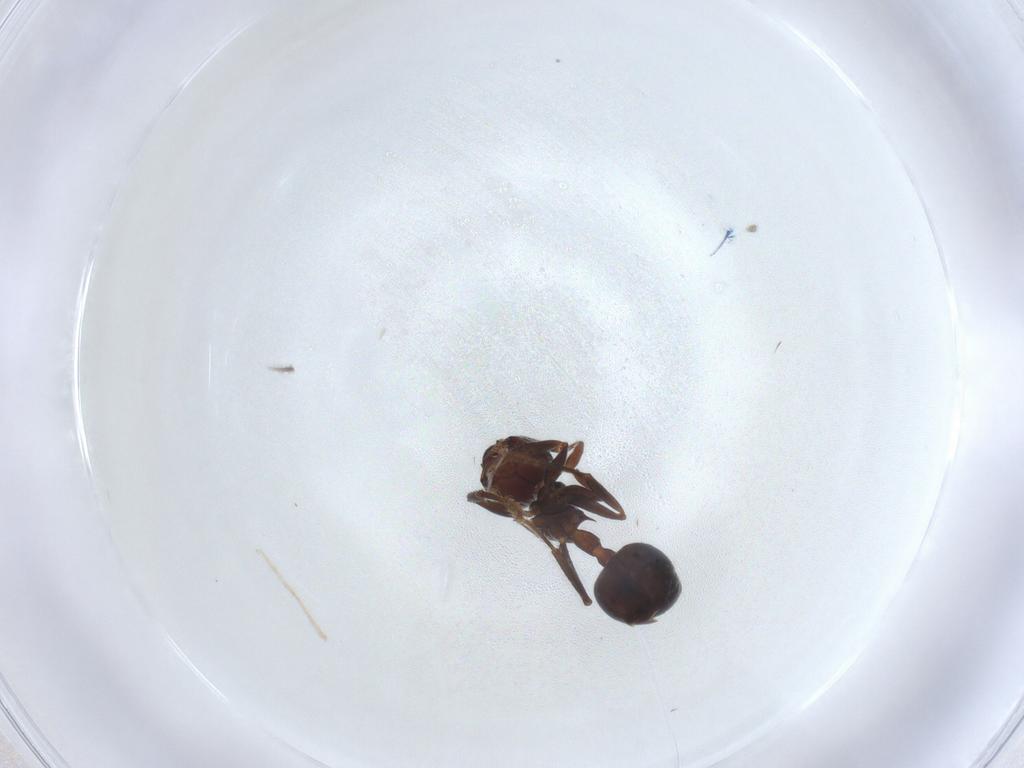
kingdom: Animalia
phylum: Arthropoda
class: Insecta
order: Hymenoptera
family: Formicidae
